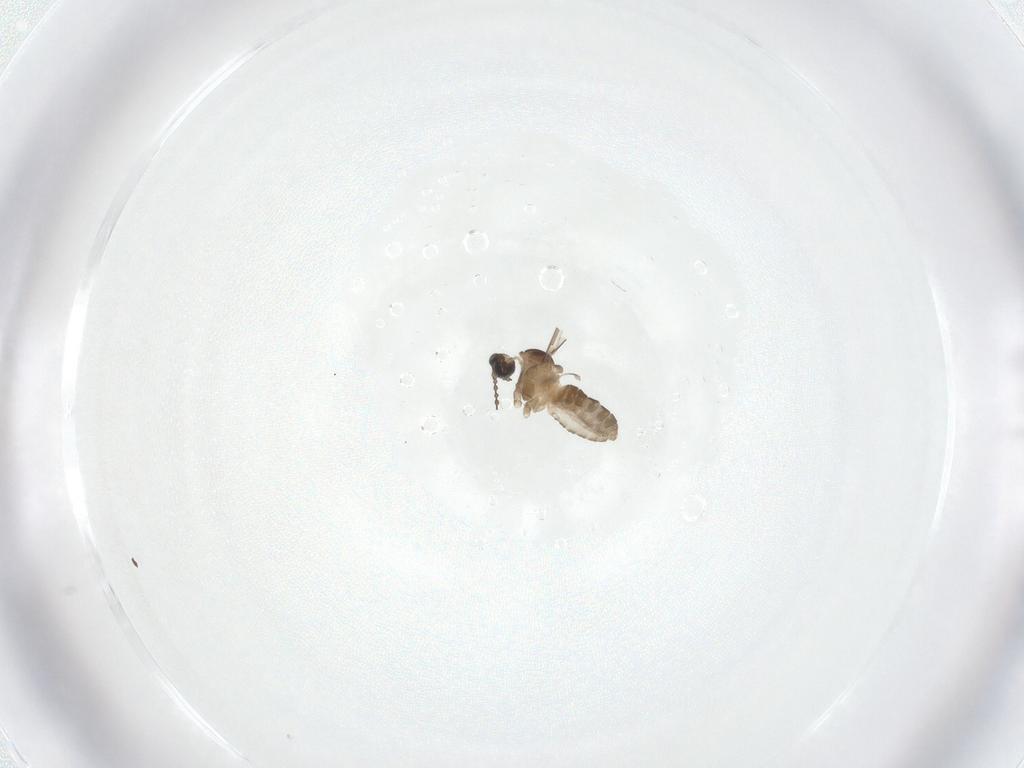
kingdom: Animalia
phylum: Arthropoda
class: Insecta
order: Diptera
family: Cecidomyiidae
